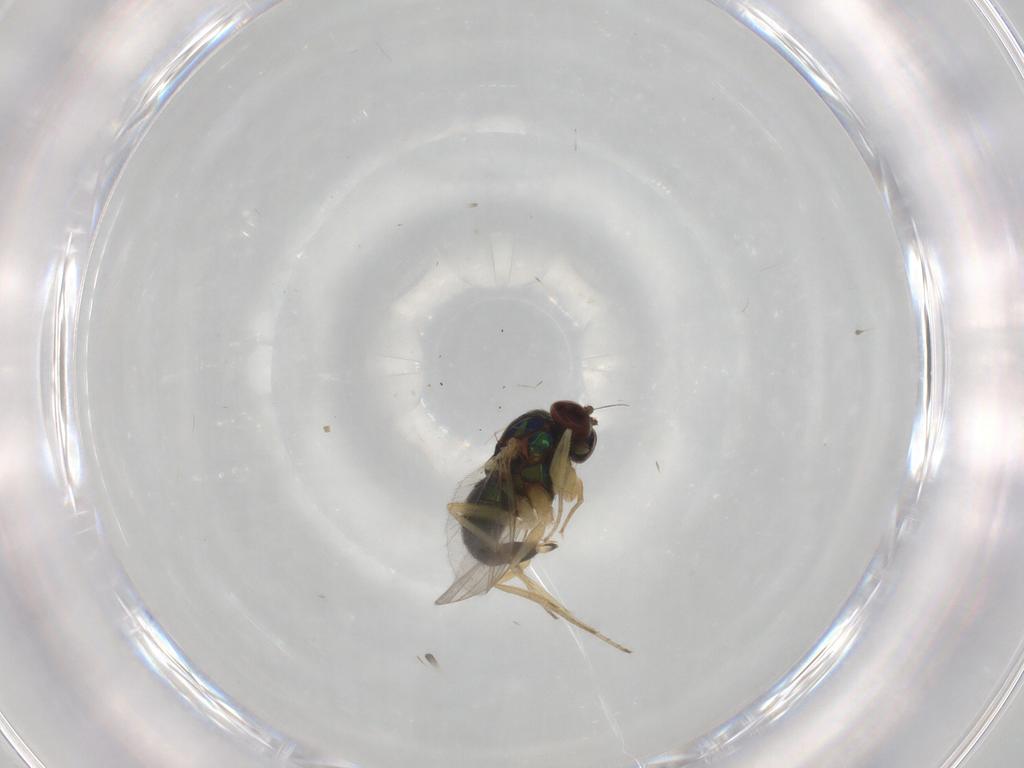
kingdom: Animalia
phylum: Arthropoda
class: Insecta
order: Diptera
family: Dolichopodidae
